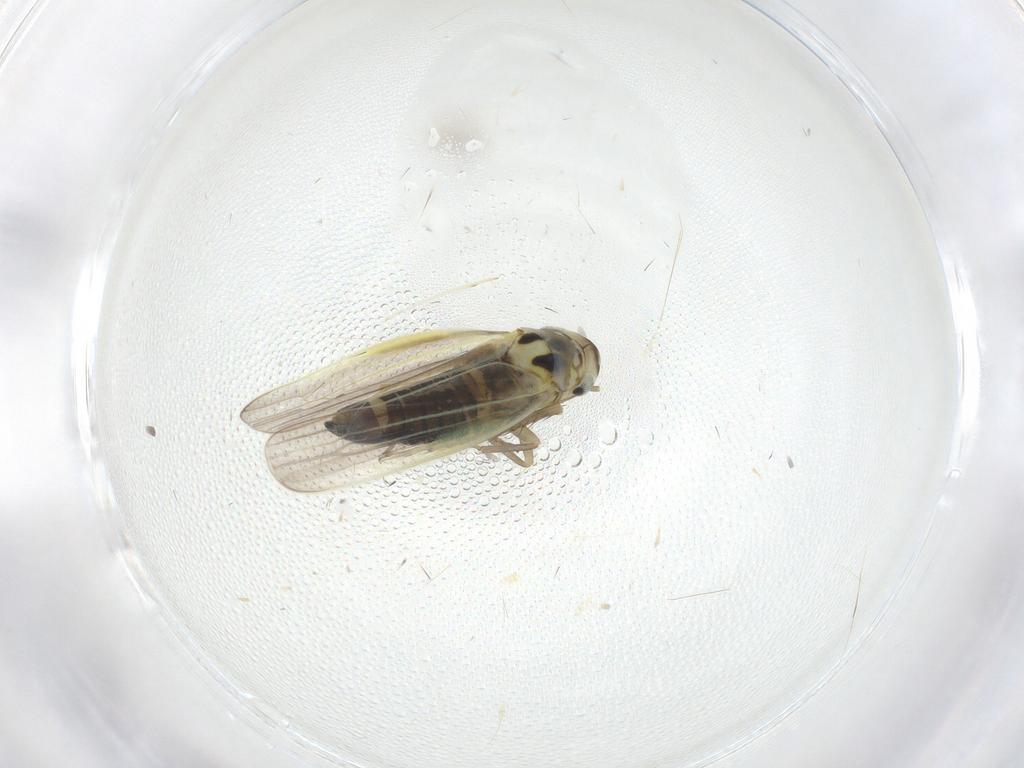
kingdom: Animalia
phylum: Arthropoda
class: Insecta
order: Hemiptera
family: Cicadellidae
